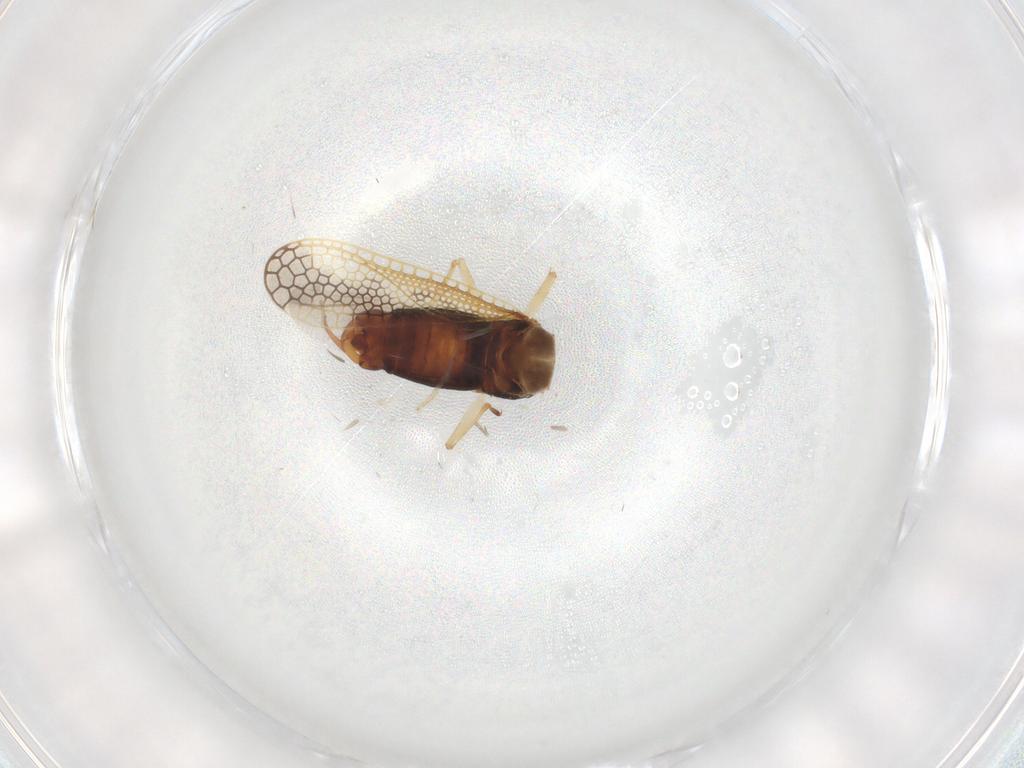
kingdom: Animalia
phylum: Arthropoda
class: Insecta
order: Hemiptera
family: Tingidae
